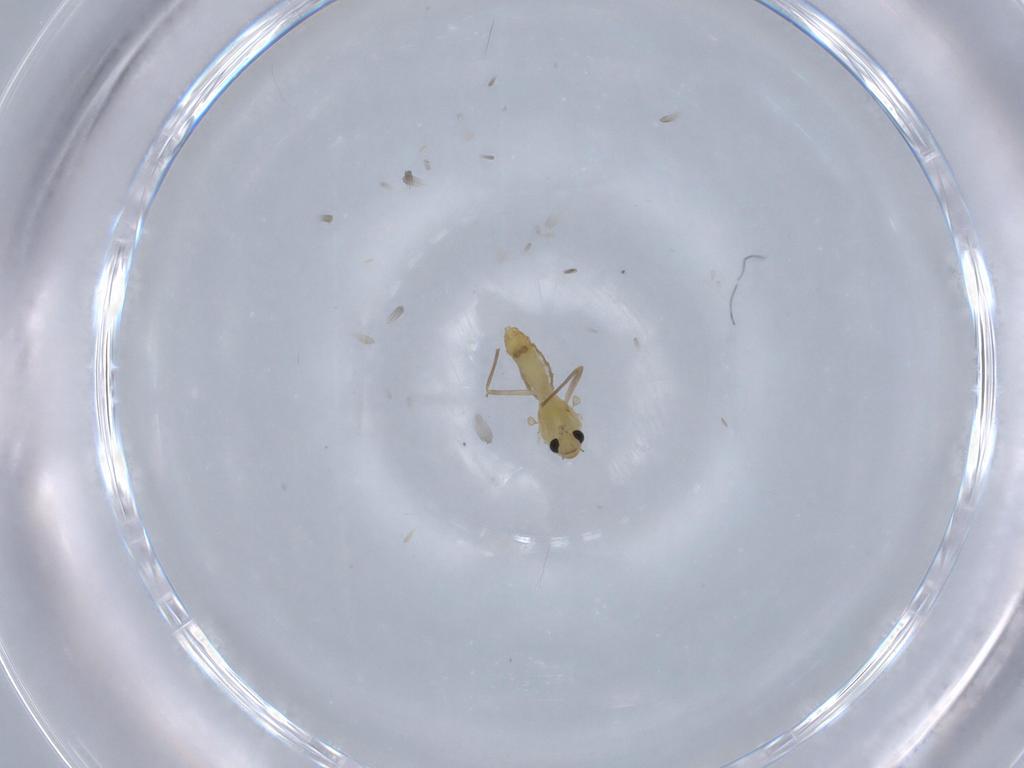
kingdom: Animalia
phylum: Arthropoda
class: Insecta
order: Diptera
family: Chironomidae
